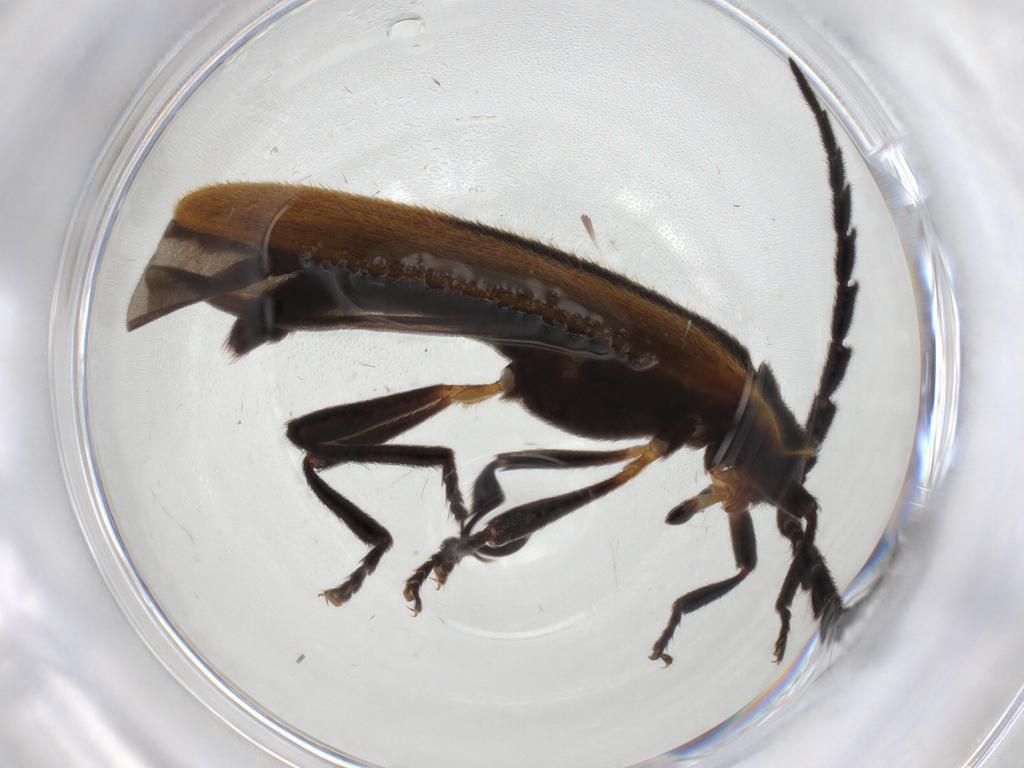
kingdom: Animalia
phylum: Arthropoda
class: Insecta
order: Coleoptera
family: Lycidae
